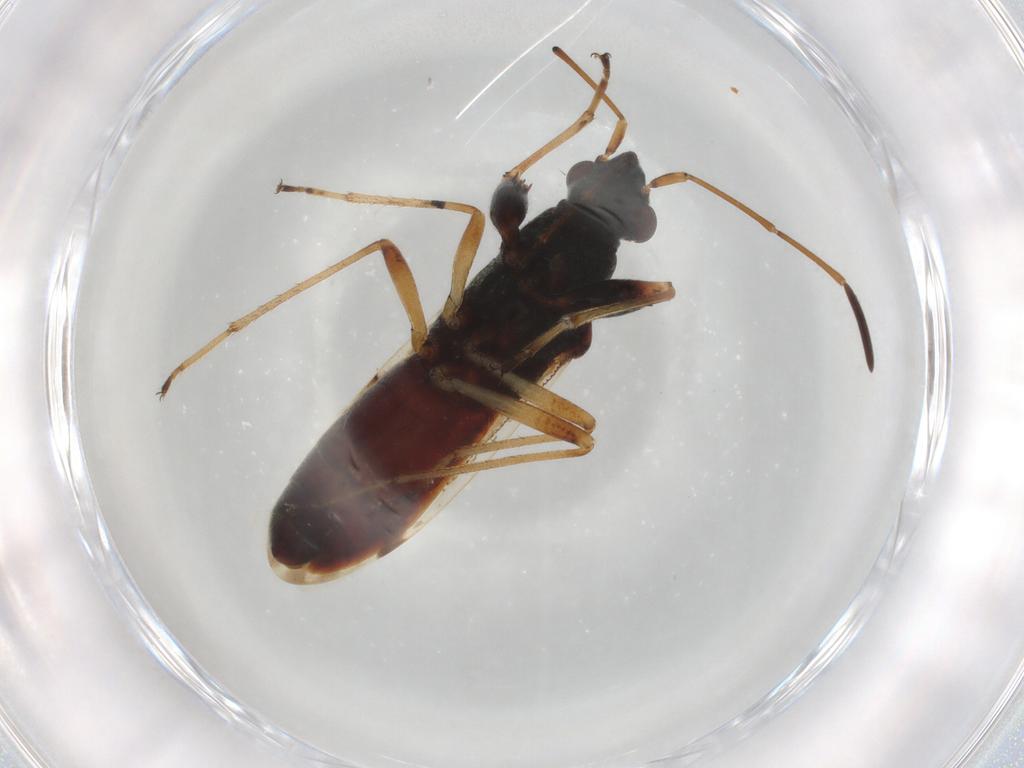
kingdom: Animalia
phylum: Arthropoda
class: Insecta
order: Hemiptera
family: Rhyparochromidae
